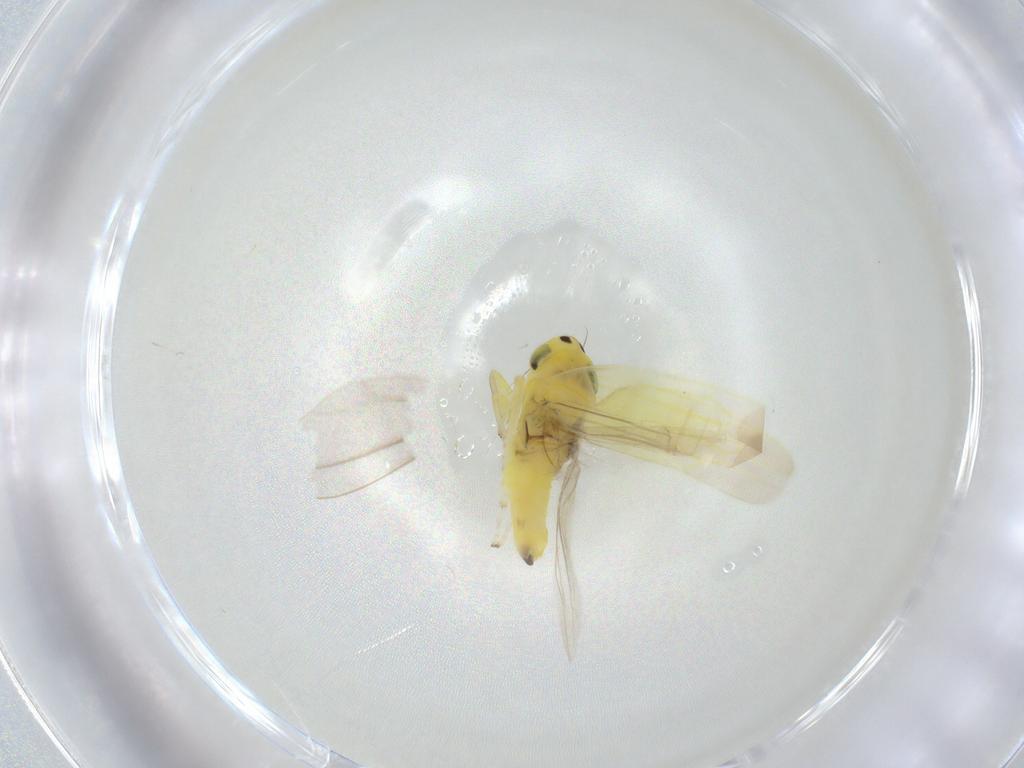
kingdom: Animalia
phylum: Arthropoda
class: Insecta
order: Hemiptera
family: Cicadellidae
